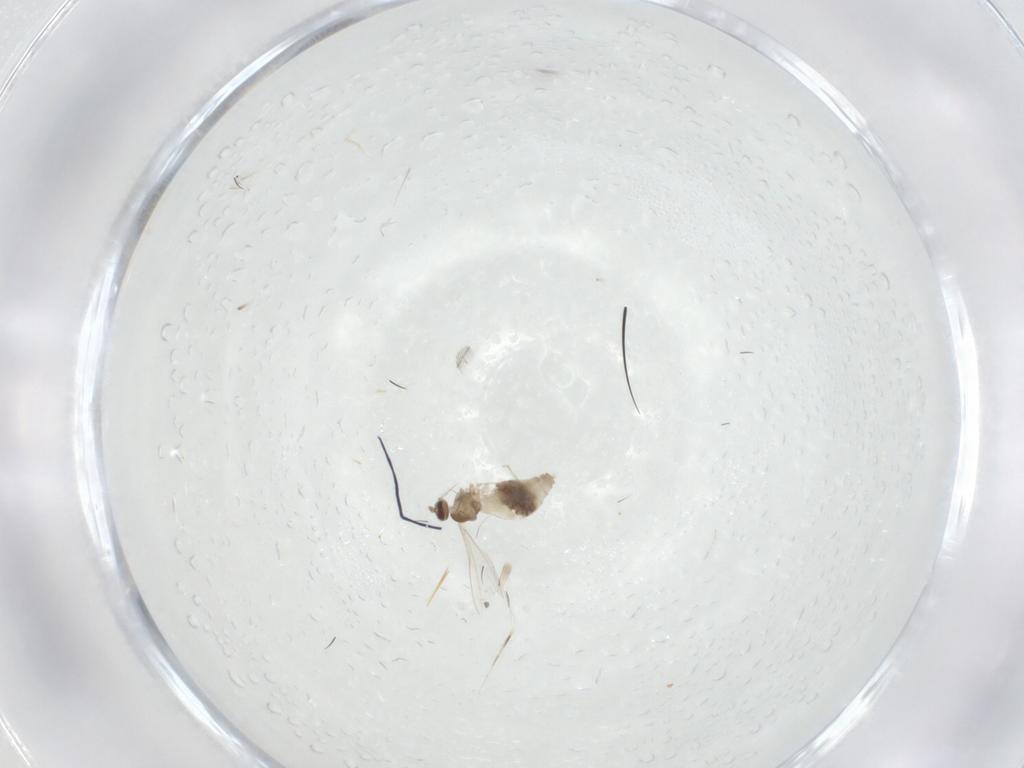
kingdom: Animalia
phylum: Arthropoda
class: Insecta
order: Diptera
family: Cecidomyiidae
